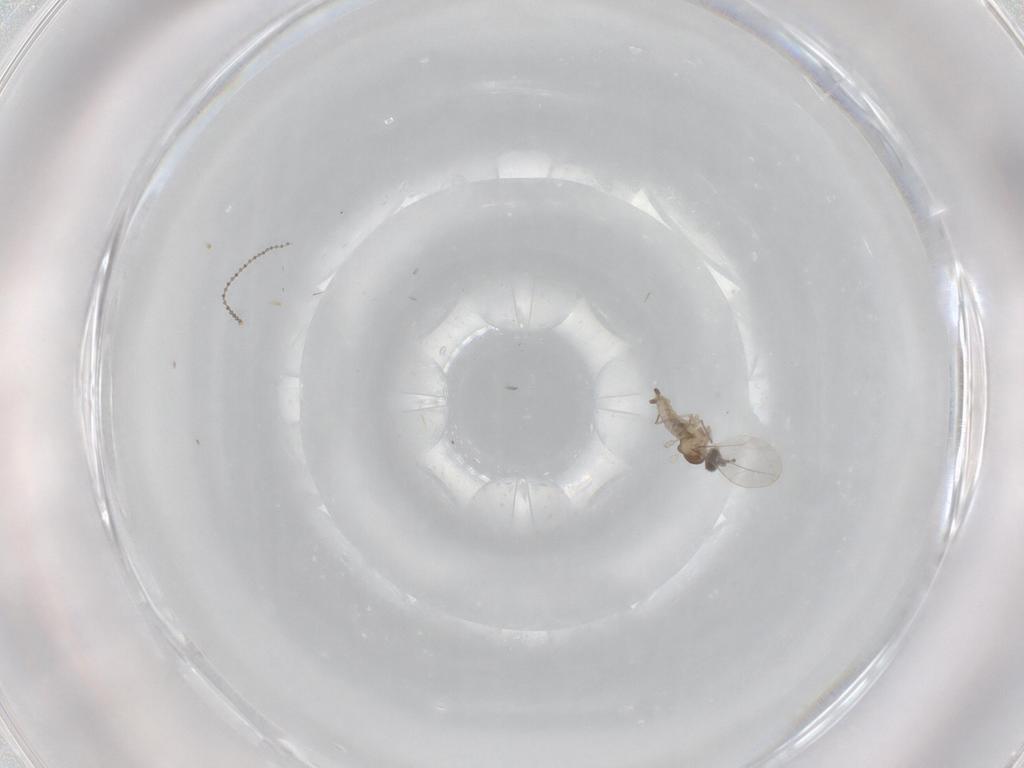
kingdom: Animalia
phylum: Arthropoda
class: Insecta
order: Diptera
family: Cecidomyiidae
